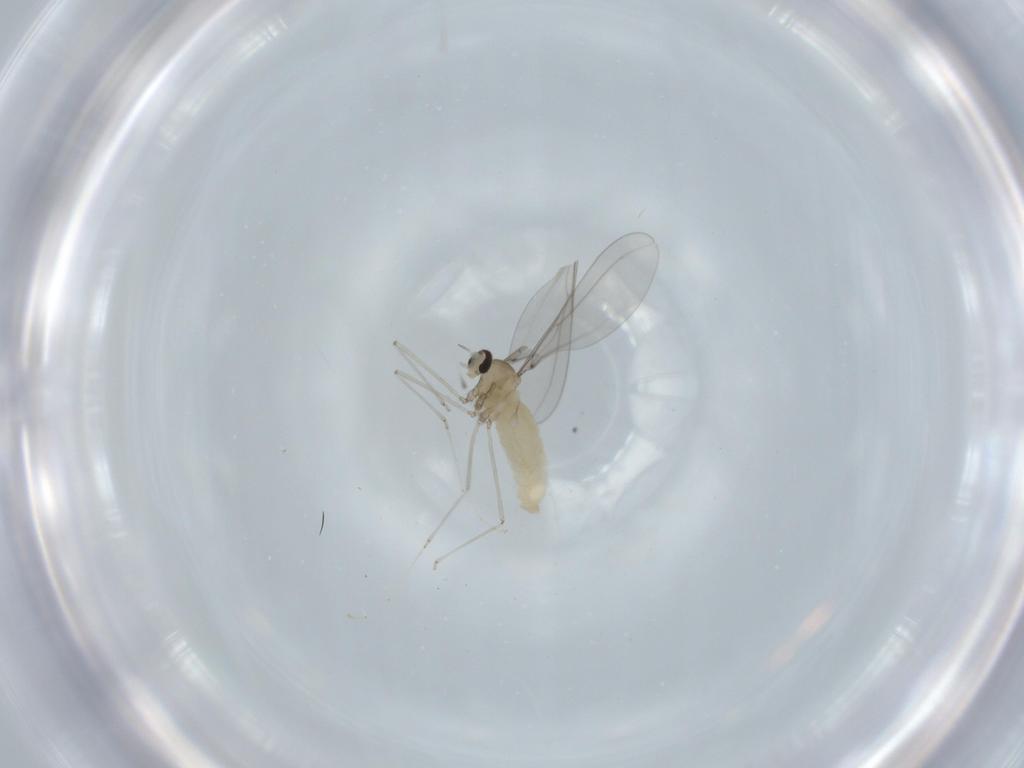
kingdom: Animalia
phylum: Arthropoda
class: Insecta
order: Diptera
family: Cecidomyiidae
